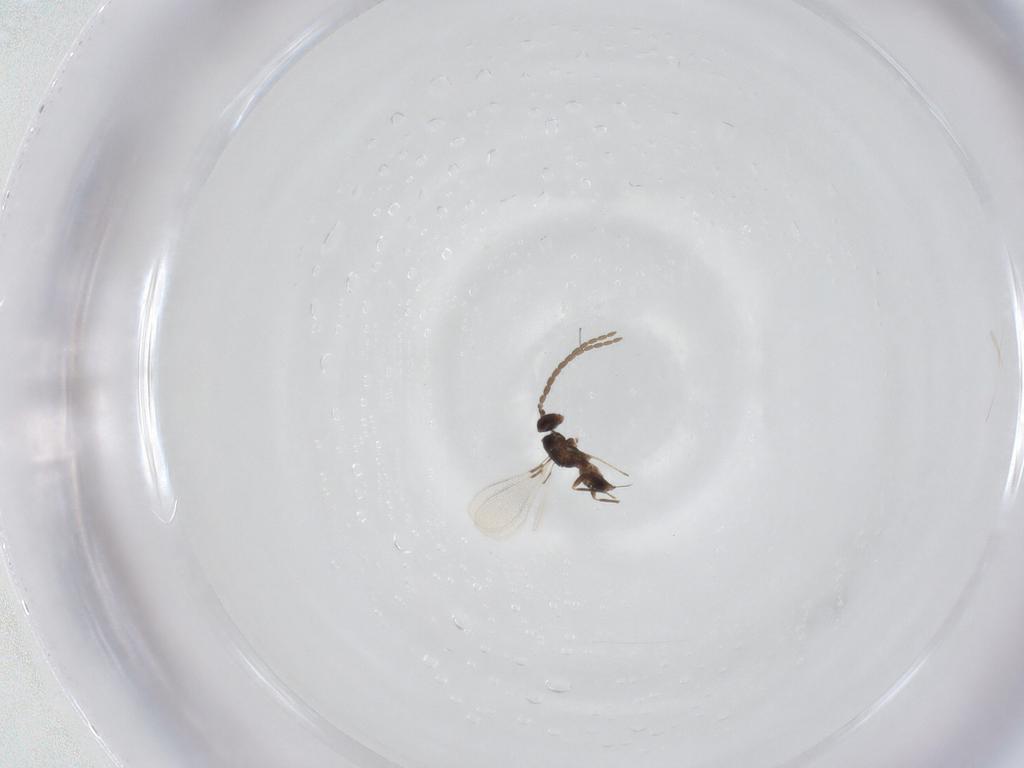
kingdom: Animalia
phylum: Arthropoda
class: Insecta
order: Hymenoptera
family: Mymaridae
